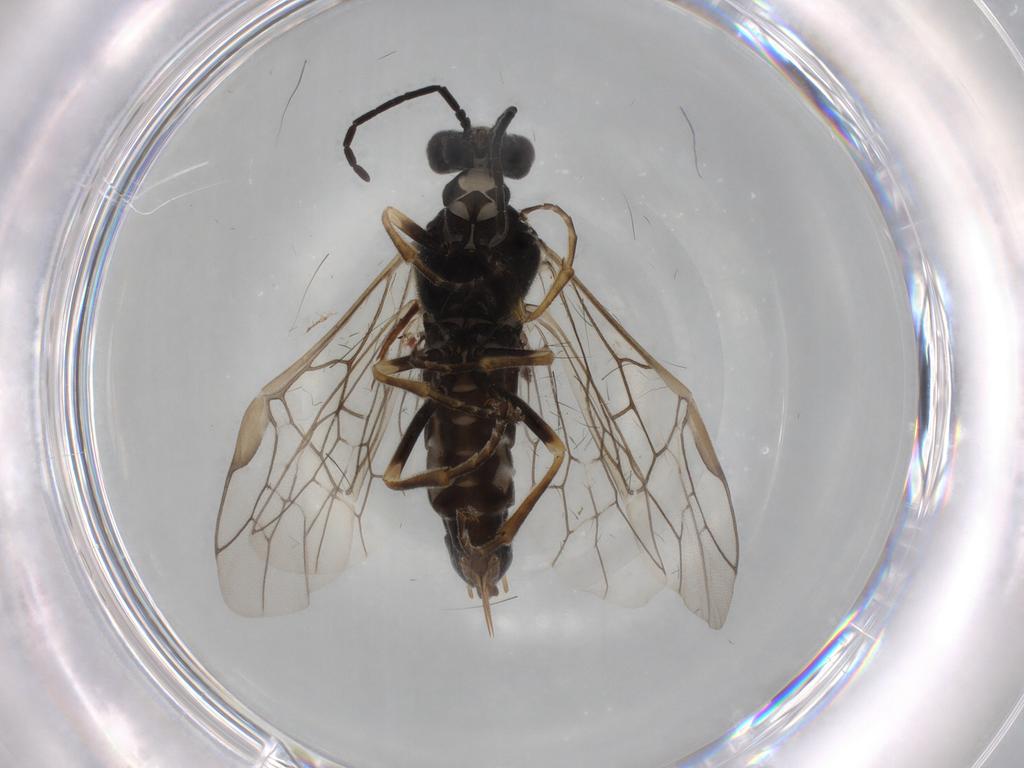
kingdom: Animalia
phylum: Arthropoda
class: Insecta
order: Hymenoptera
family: Tenthredinidae
